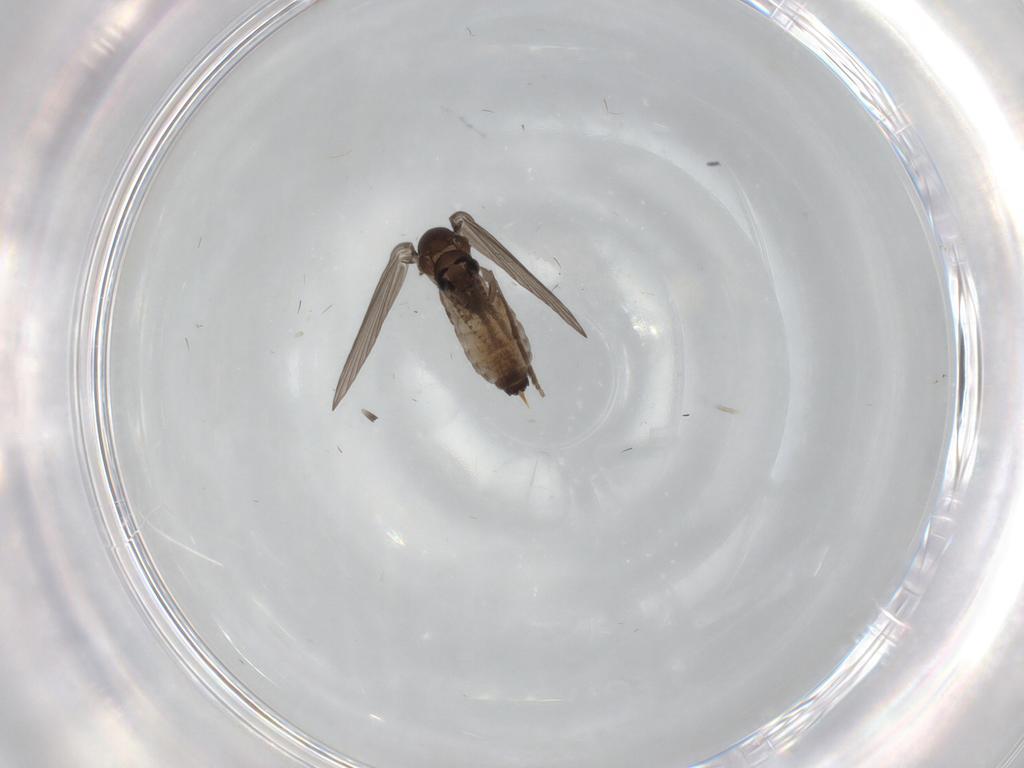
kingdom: Animalia
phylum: Arthropoda
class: Insecta
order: Diptera
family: Psychodidae
